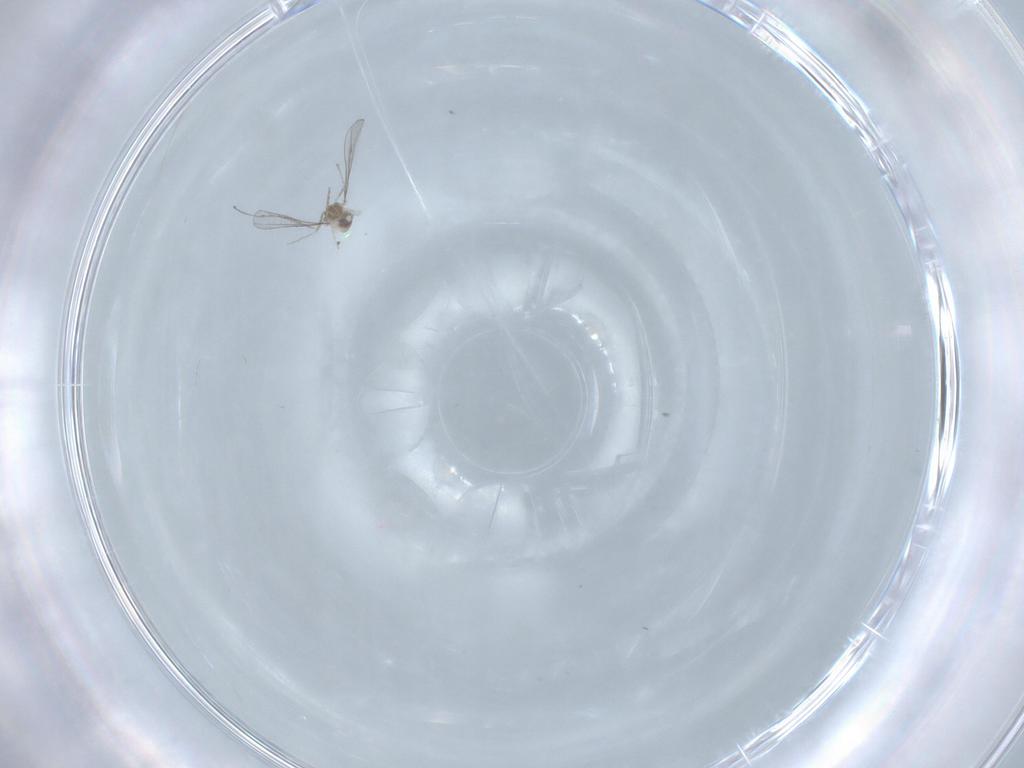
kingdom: Animalia
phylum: Arthropoda
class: Insecta
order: Diptera
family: Cecidomyiidae
